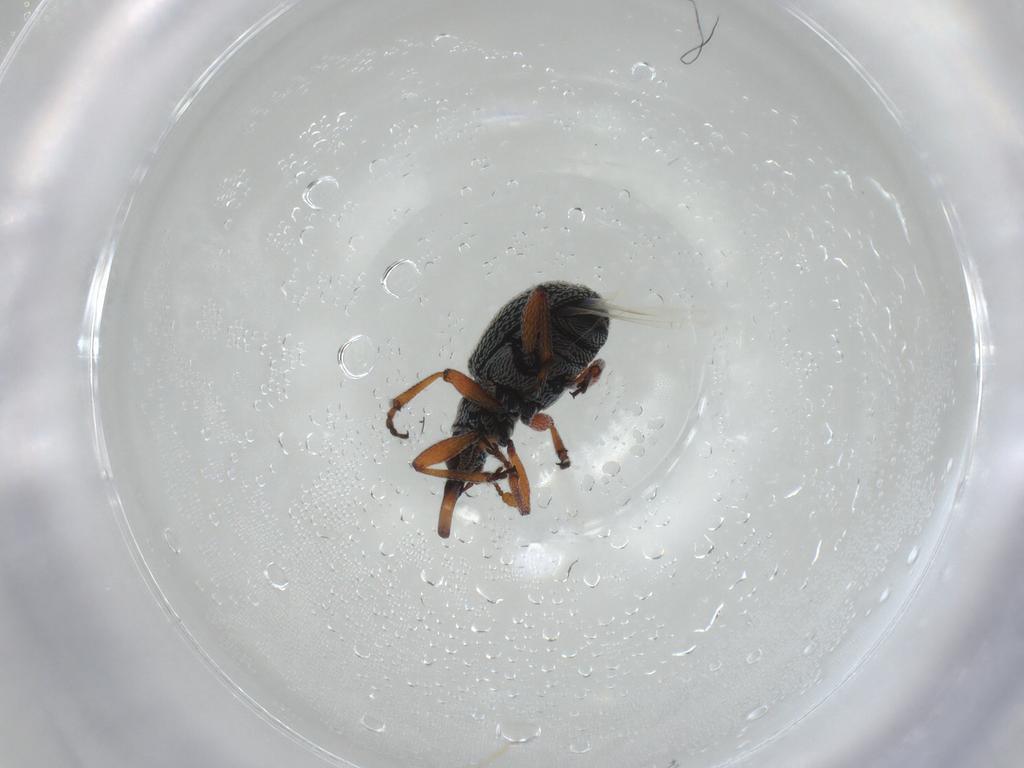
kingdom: Animalia
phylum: Arthropoda
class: Insecta
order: Coleoptera
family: Brentidae
